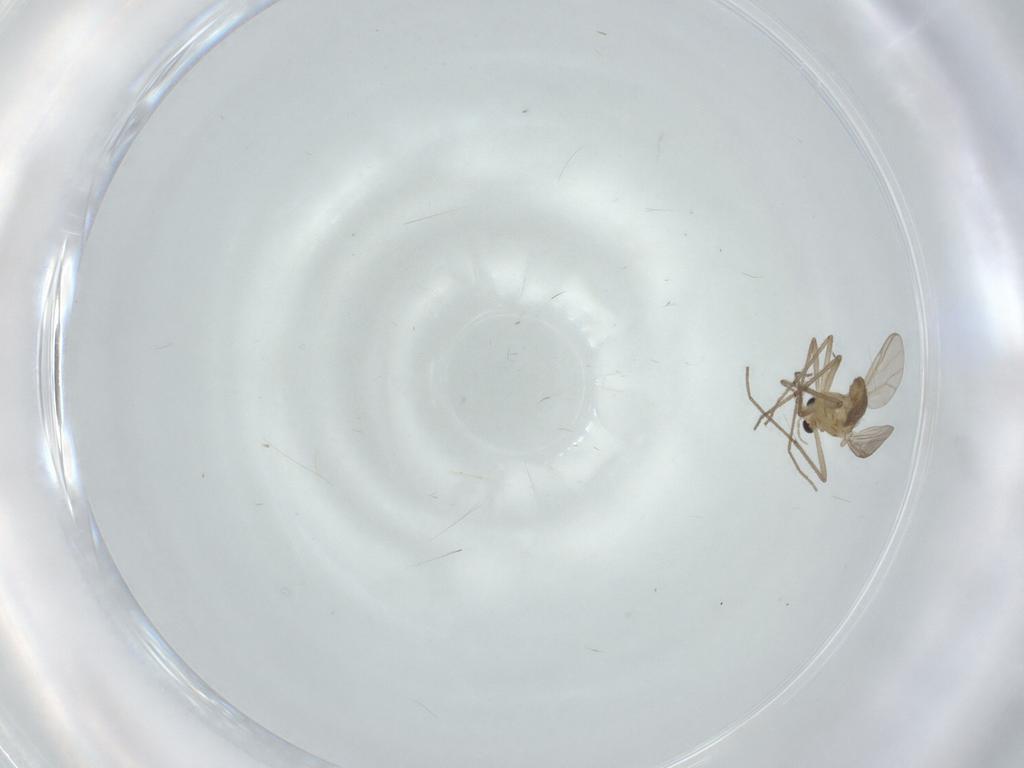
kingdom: Animalia
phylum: Arthropoda
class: Insecta
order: Diptera
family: Chironomidae
